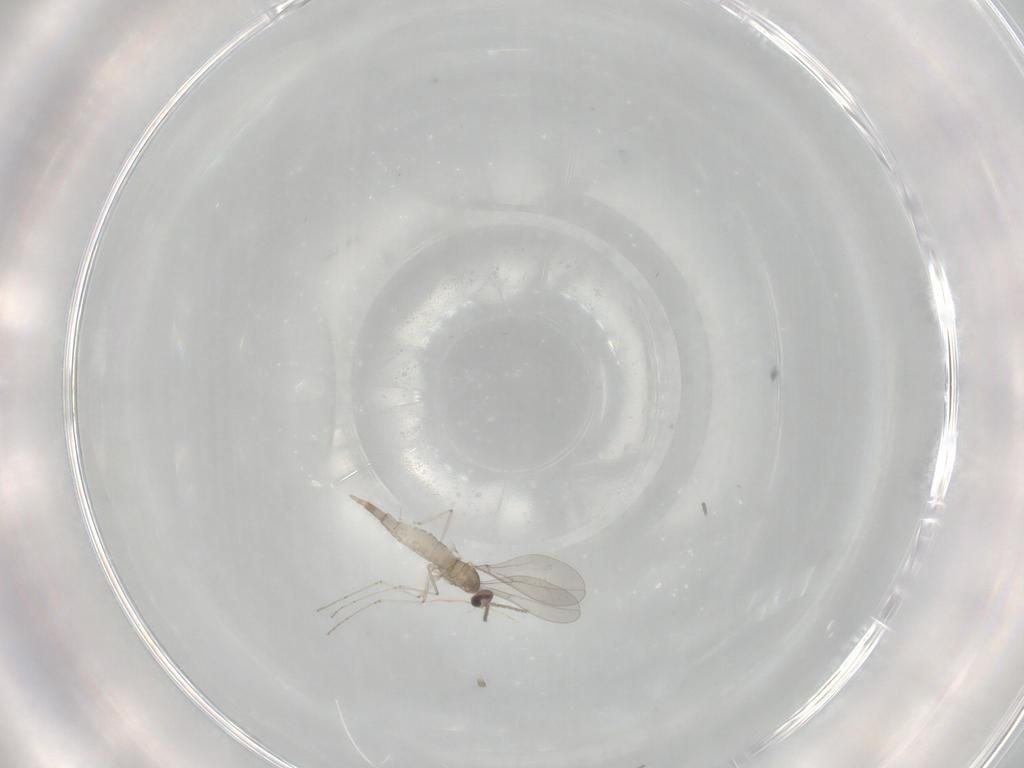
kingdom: Animalia
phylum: Arthropoda
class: Insecta
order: Diptera
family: Cecidomyiidae
